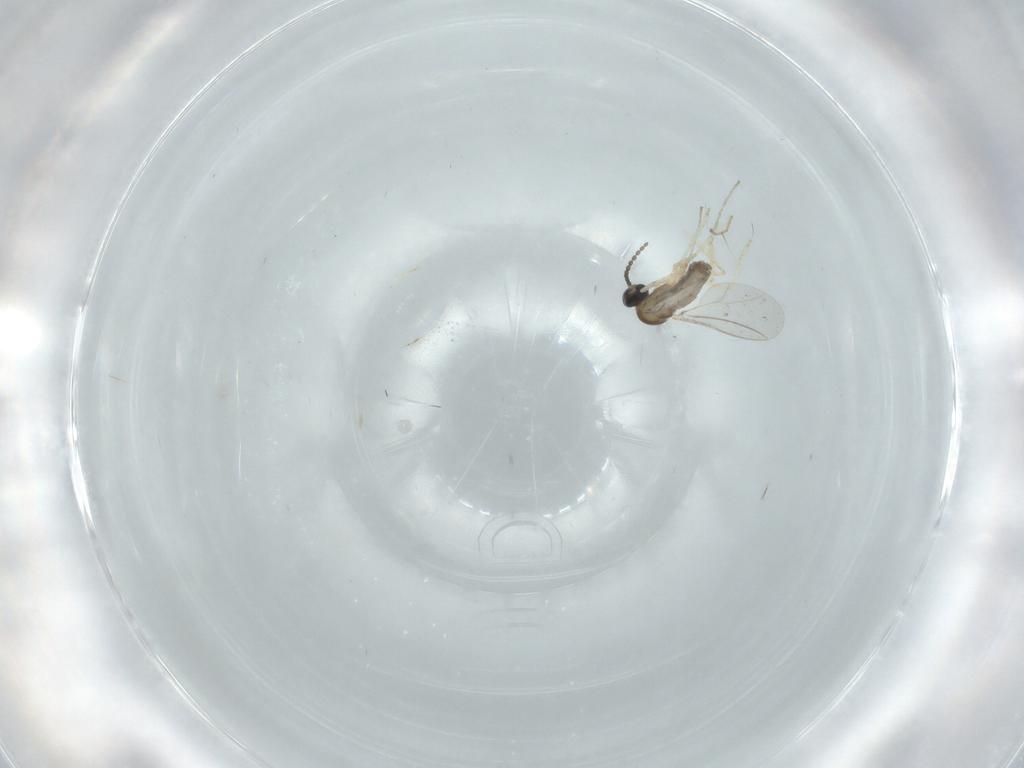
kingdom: Animalia
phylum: Arthropoda
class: Insecta
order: Diptera
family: Cecidomyiidae
